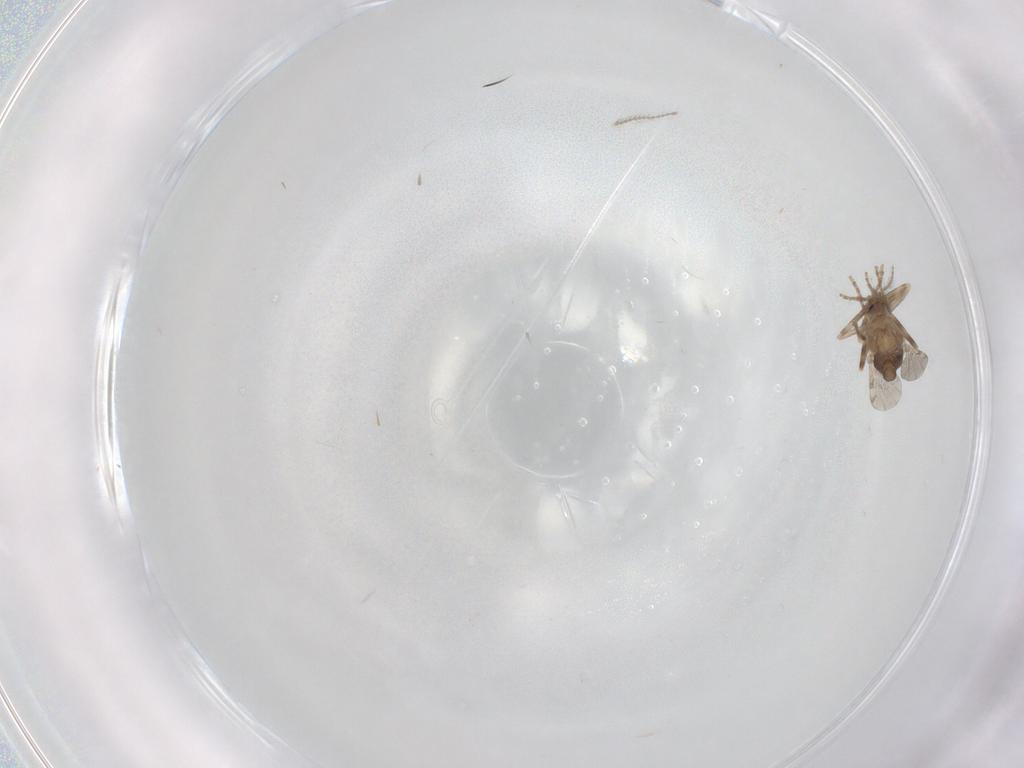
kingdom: Animalia
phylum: Arthropoda
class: Insecta
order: Diptera
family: Ceratopogonidae
